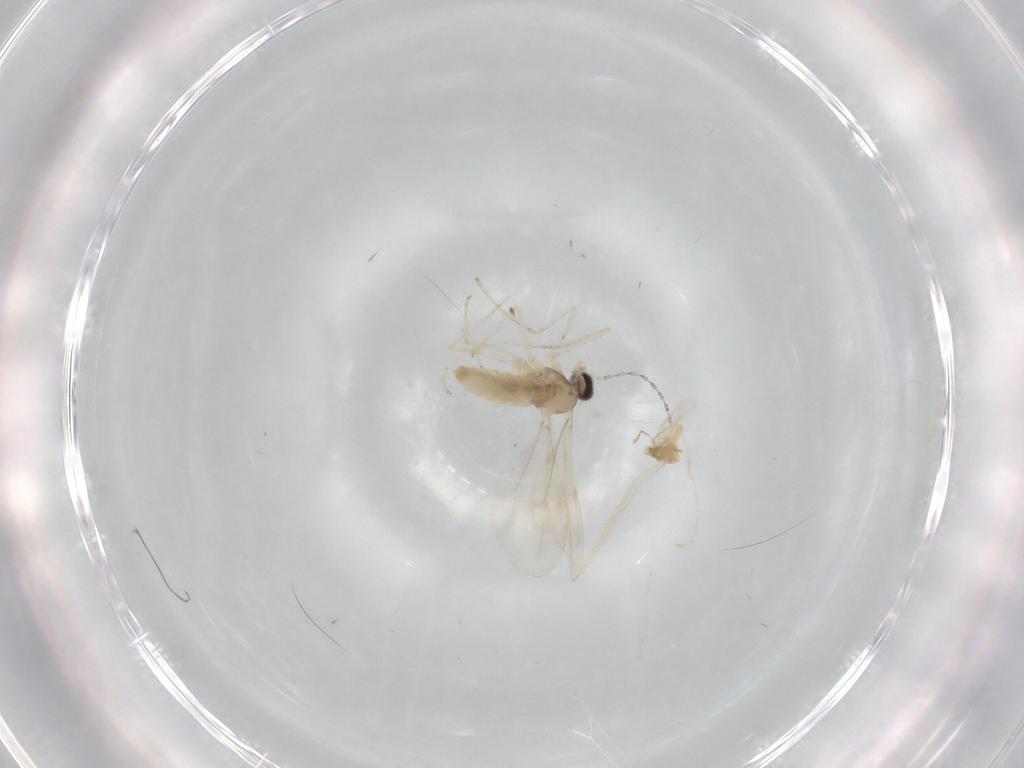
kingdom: Animalia
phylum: Arthropoda
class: Insecta
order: Diptera
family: Cecidomyiidae
